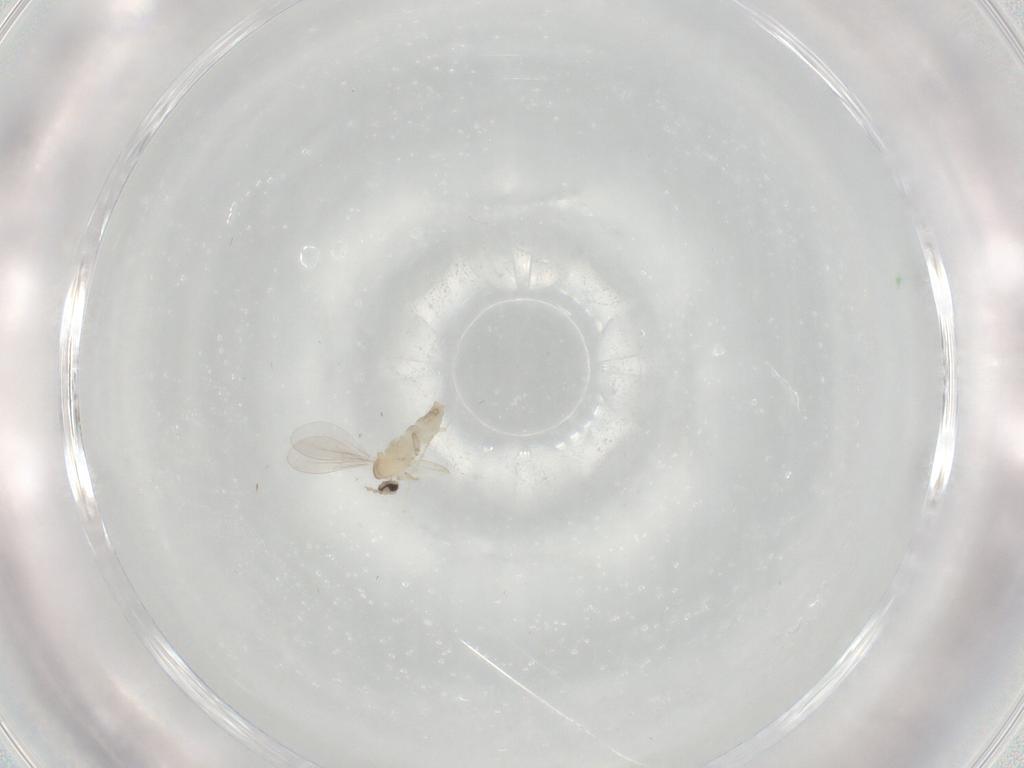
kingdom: Animalia
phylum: Arthropoda
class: Insecta
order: Diptera
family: Cecidomyiidae
